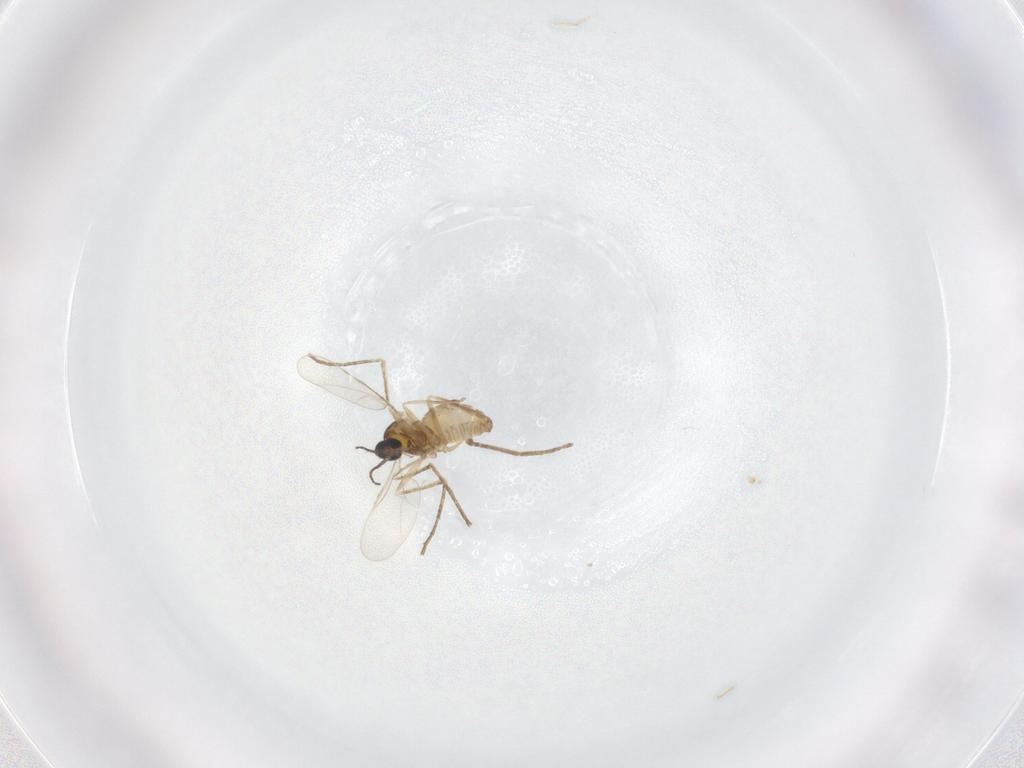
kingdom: Animalia
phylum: Arthropoda
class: Insecta
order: Diptera
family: Cecidomyiidae
